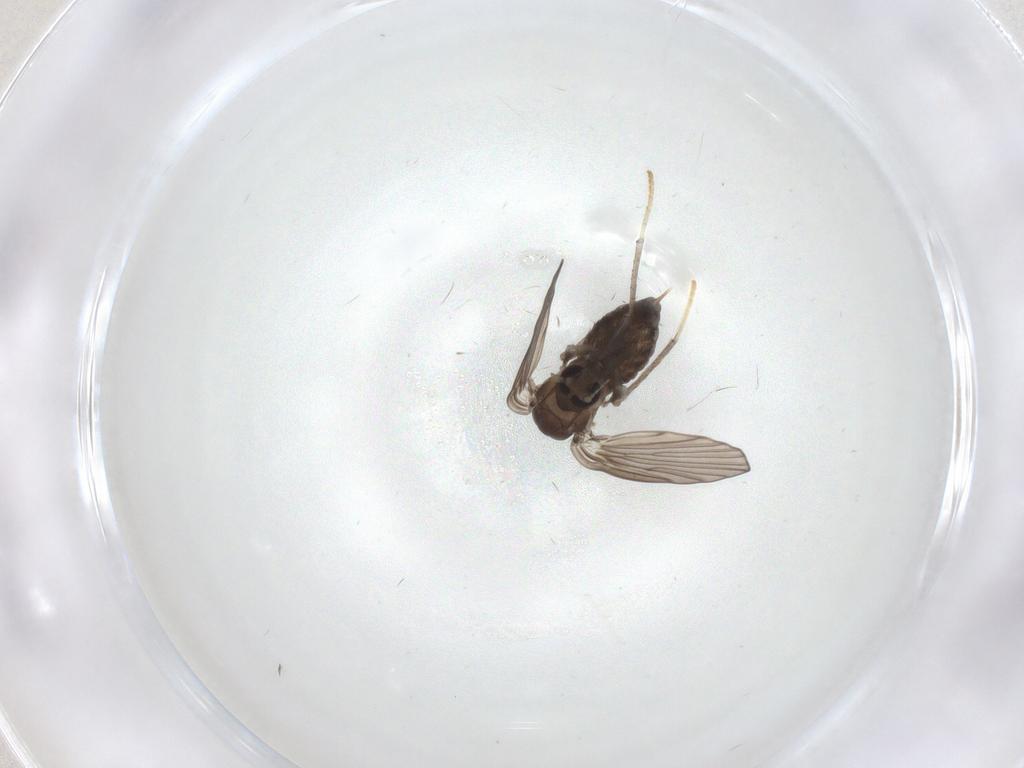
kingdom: Animalia
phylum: Arthropoda
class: Insecta
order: Diptera
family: Psychodidae
